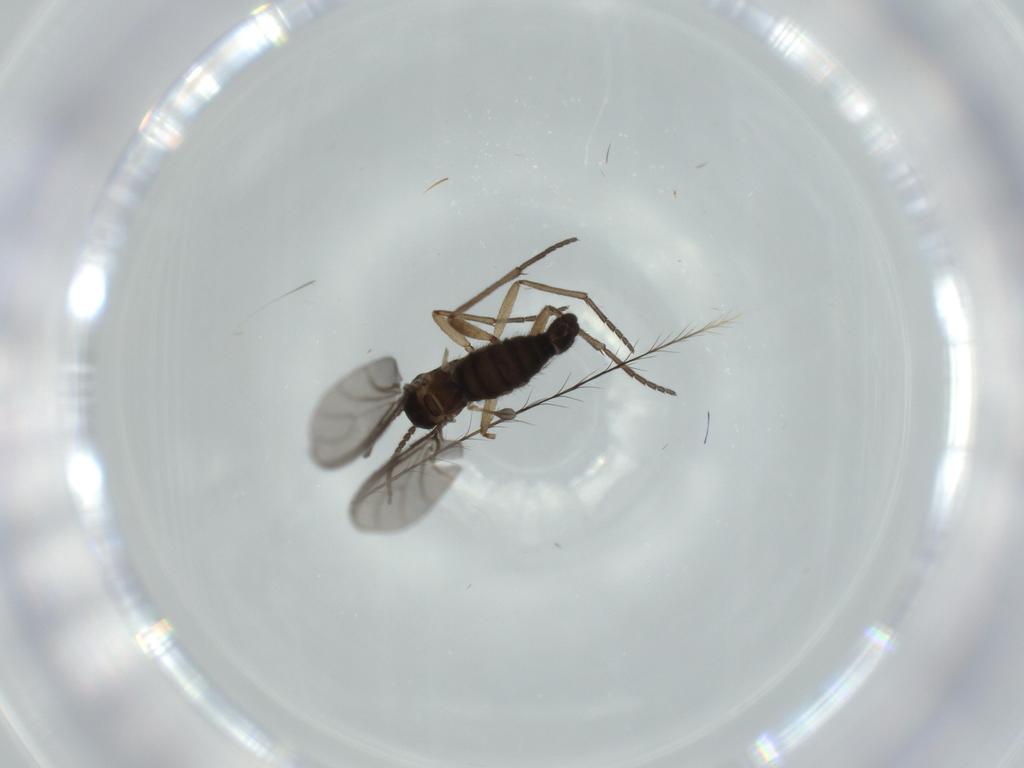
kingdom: Animalia
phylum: Arthropoda
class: Insecta
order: Diptera
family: Sciaridae
